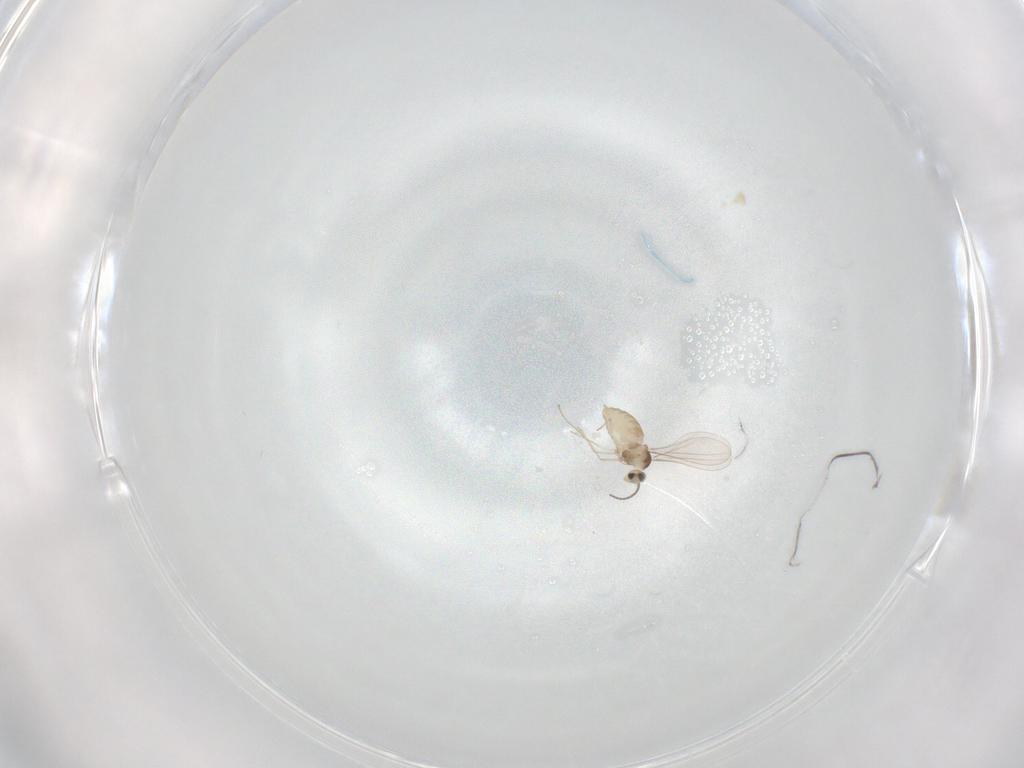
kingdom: Animalia
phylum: Arthropoda
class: Insecta
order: Diptera
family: Cecidomyiidae
